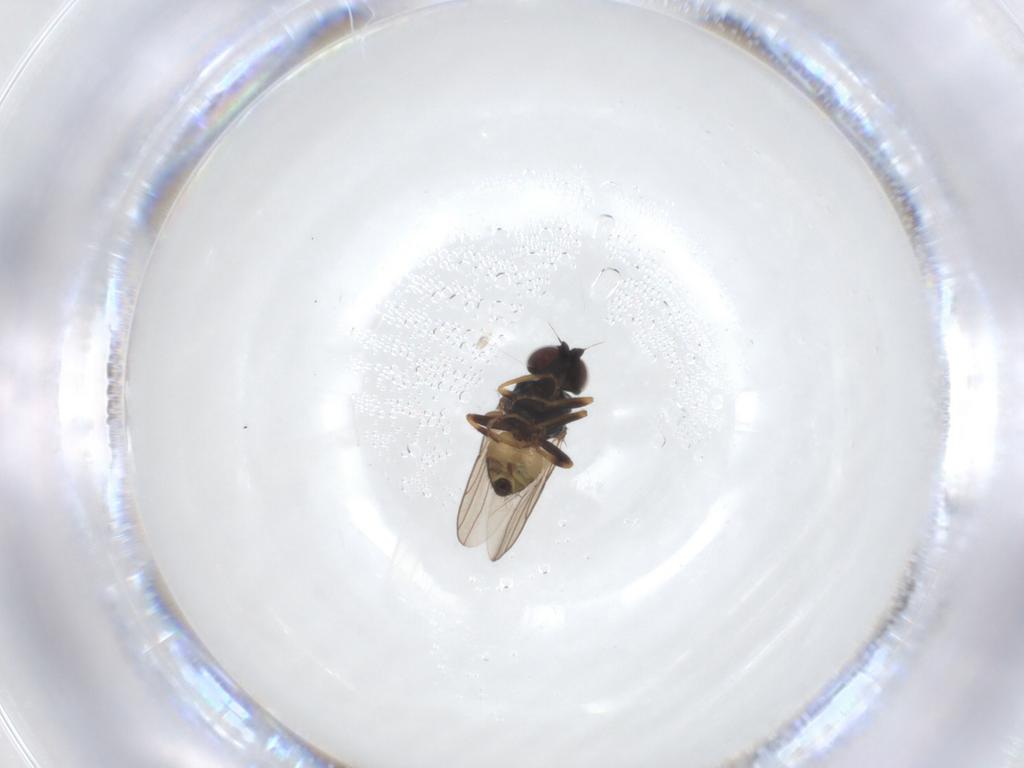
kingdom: Animalia
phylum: Arthropoda
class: Insecta
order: Diptera
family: Chloropidae
